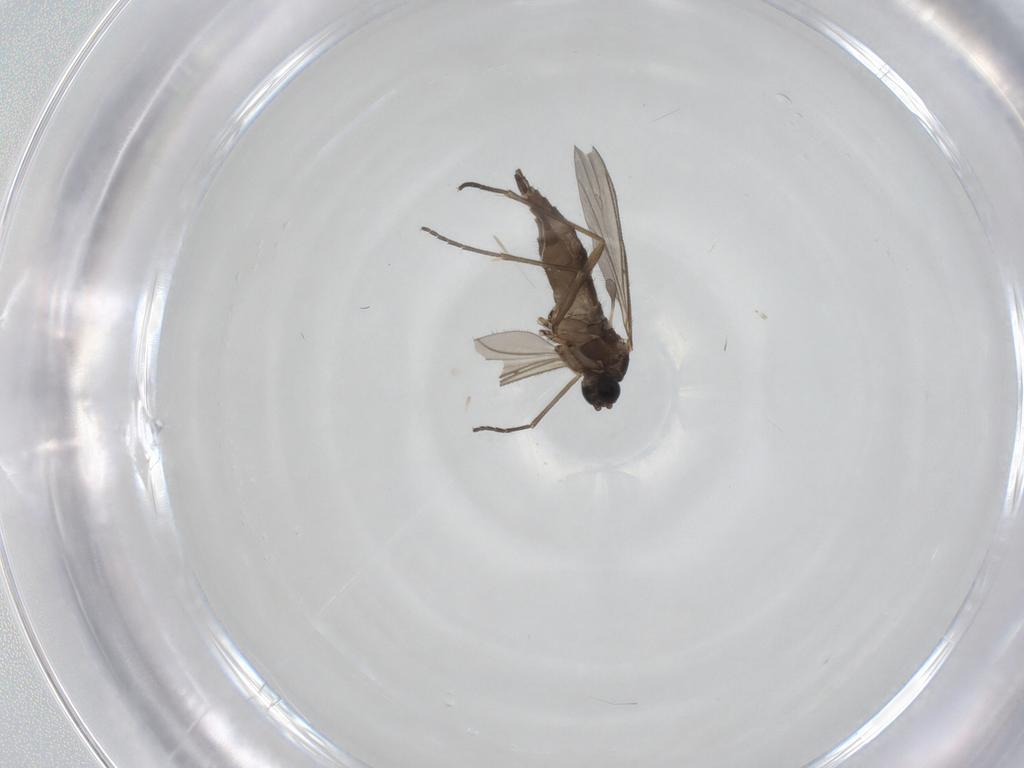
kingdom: Animalia
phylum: Arthropoda
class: Insecta
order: Diptera
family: Sciaridae
